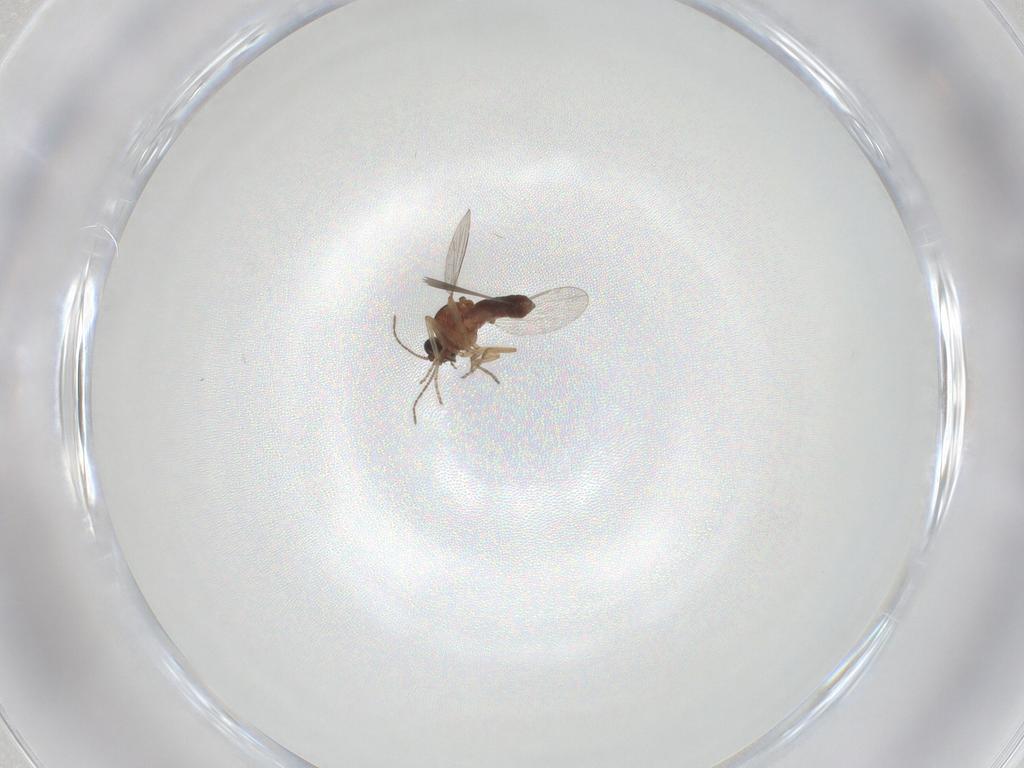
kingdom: Animalia
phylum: Arthropoda
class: Insecta
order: Diptera
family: Ceratopogonidae
